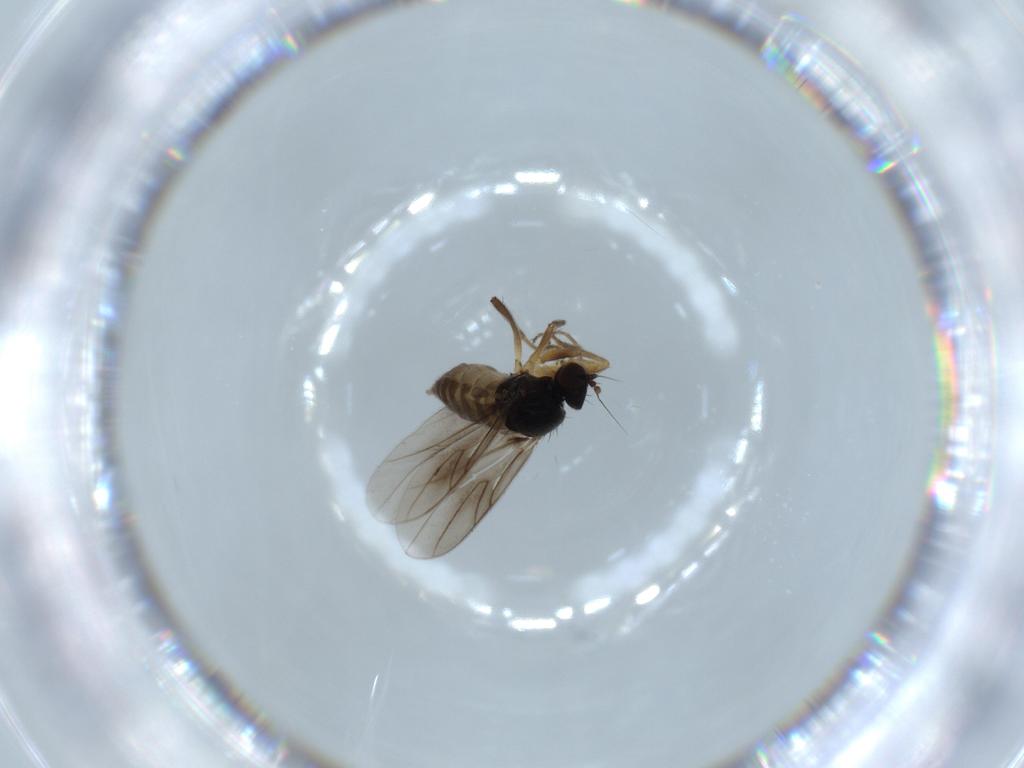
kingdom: Animalia
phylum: Arthropoda
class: Insecta
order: Diptera
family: Hybotidae
